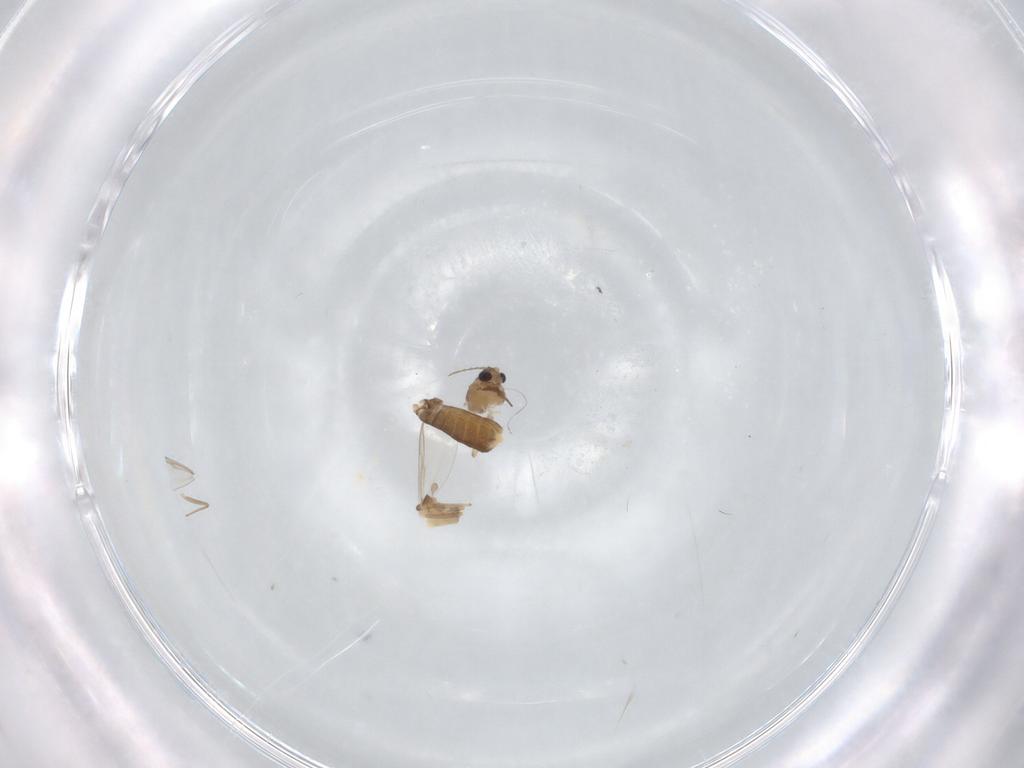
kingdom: Animalia
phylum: Arthropoda
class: Insecta
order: Diptera
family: Chironomidae
